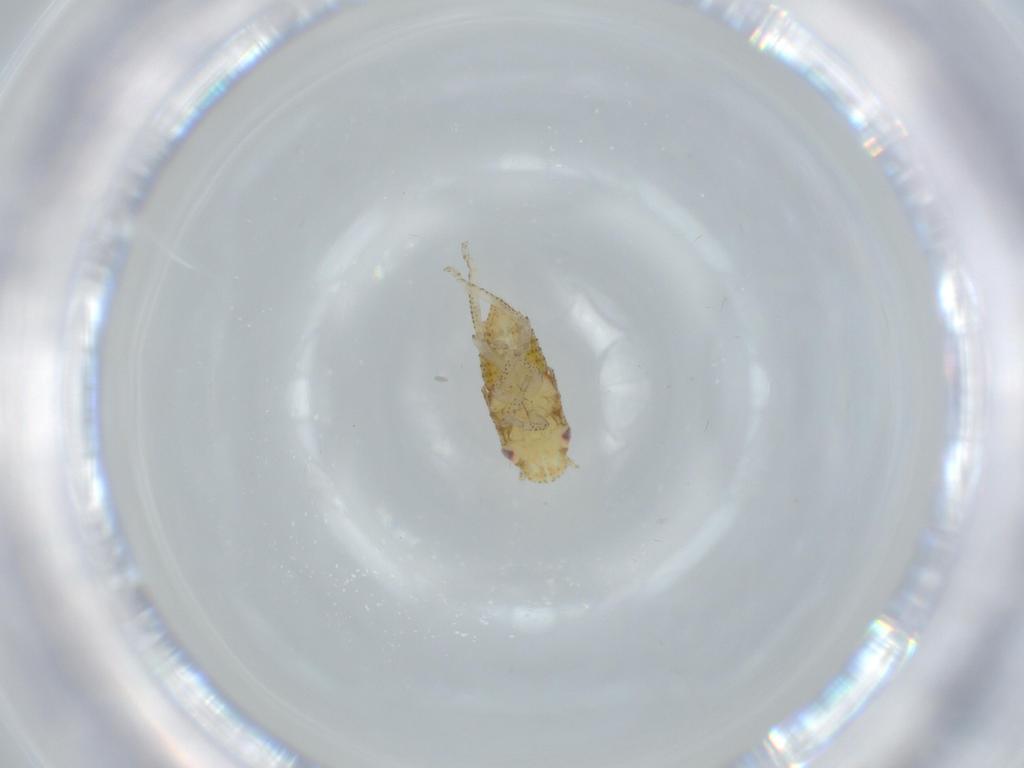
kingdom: Animalia
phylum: Arthropoda
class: Insecta
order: Hemiptera
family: Cicadellidae
